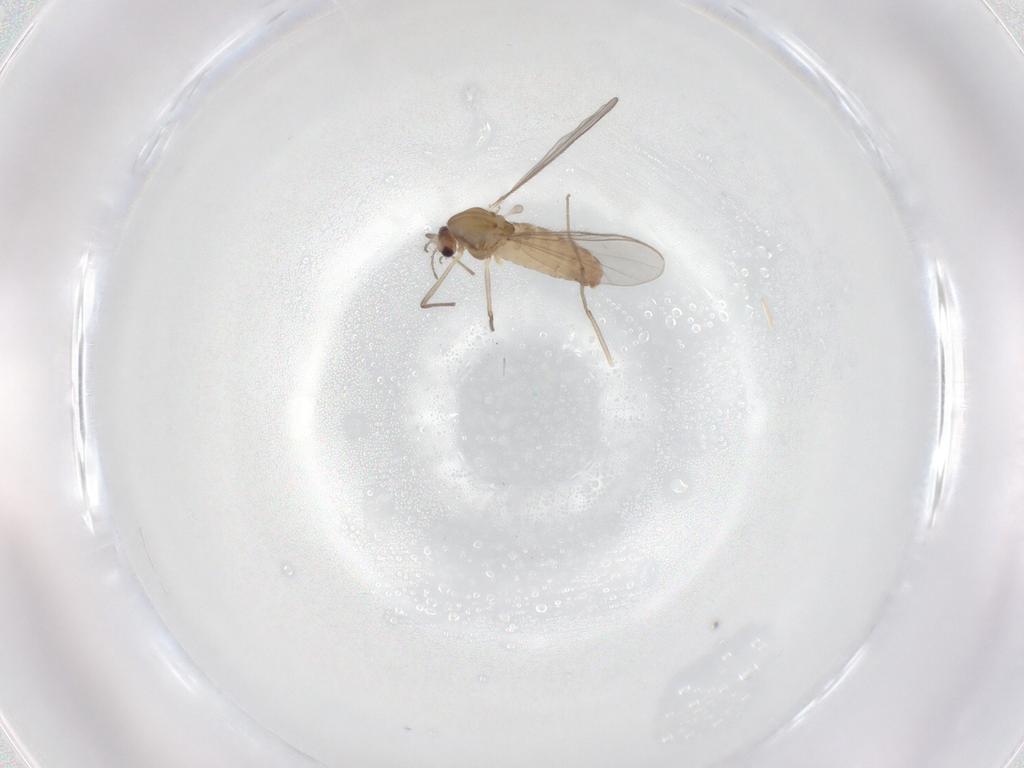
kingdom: Animalia
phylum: Arthropoda
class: Insecta
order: Diptera
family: Chironomidae
